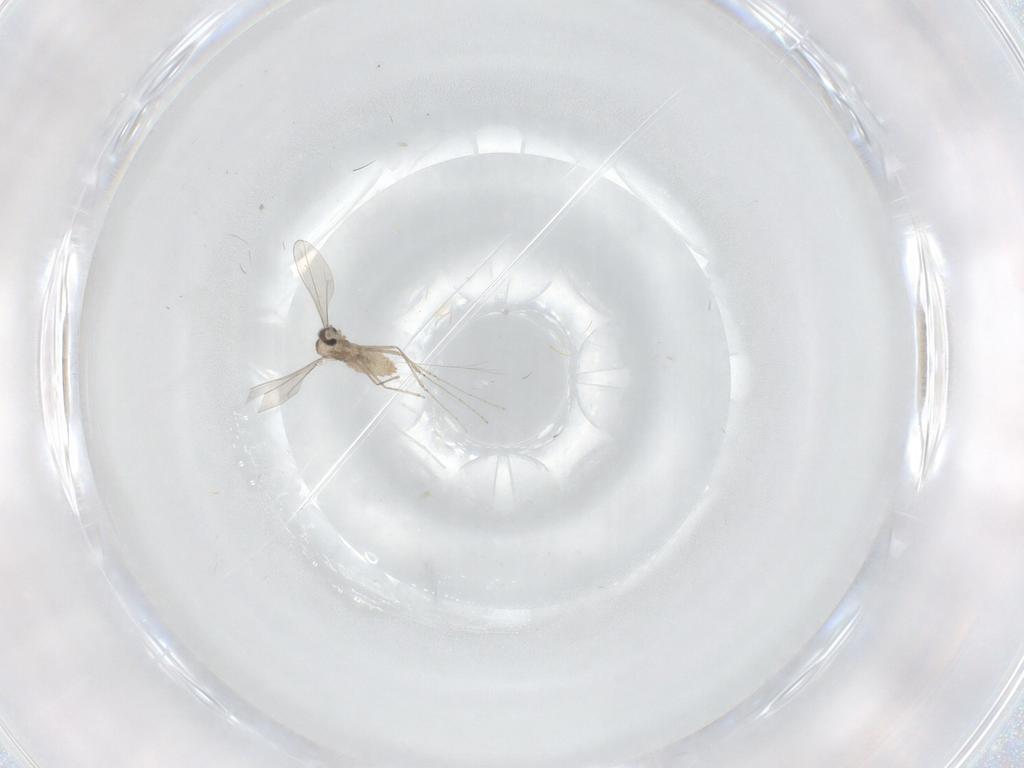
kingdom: Animalia
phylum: Arthropoda
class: Insecta
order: Diptera
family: Cecidomyiidae
